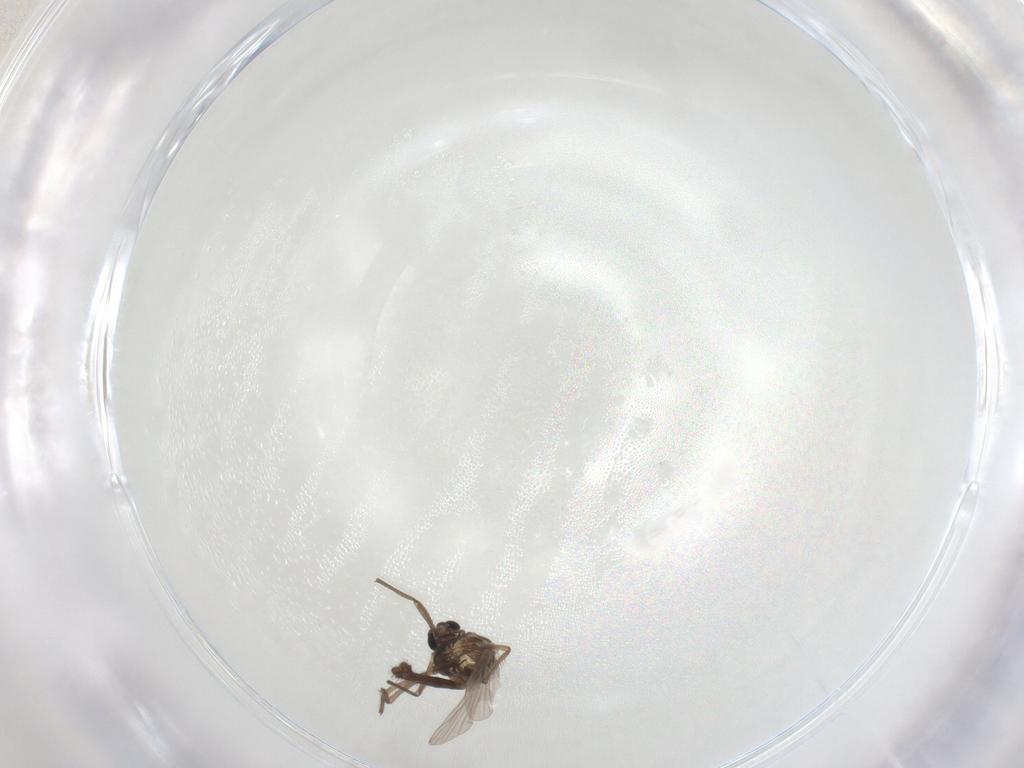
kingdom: Animalia
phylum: Arthropoda
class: Insecta
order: Diptera
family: Chironomidae
